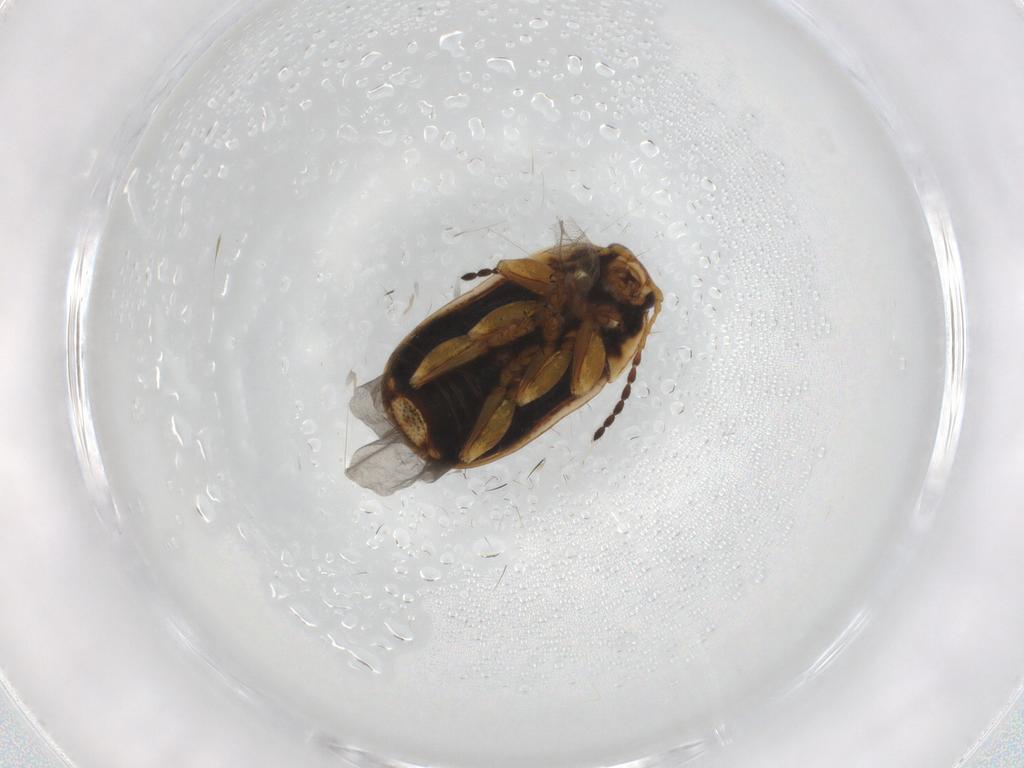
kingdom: Animalia
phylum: Arthropoda
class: Insecta
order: Coleoptera
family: Chrysomelidae
